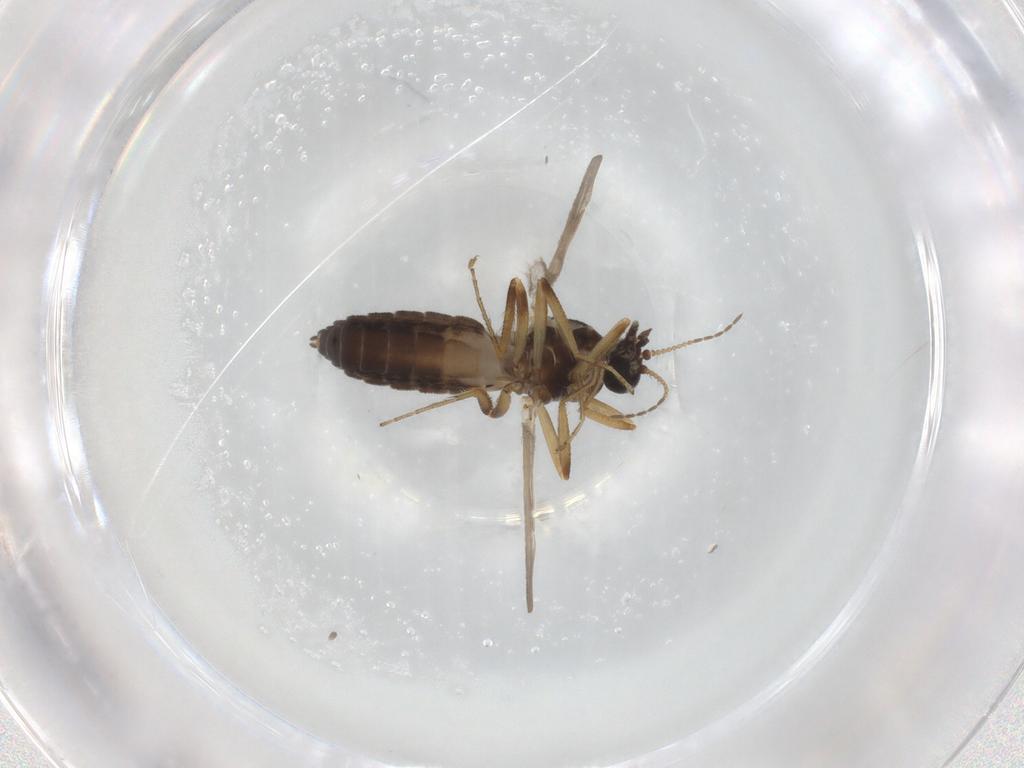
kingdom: Animalia
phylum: Arthropoda
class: Insecta
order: Diptera
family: Ceratopogonidae
